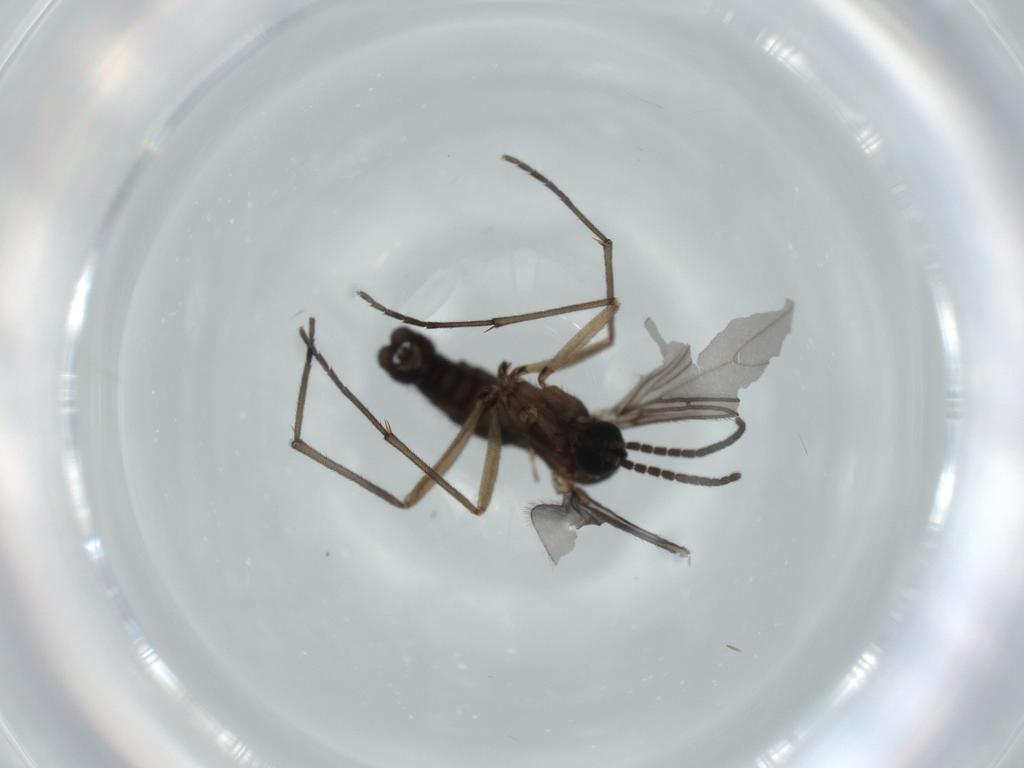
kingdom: Animalia
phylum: Arthropoda
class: Insecta
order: Diptera
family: Sciaridae
